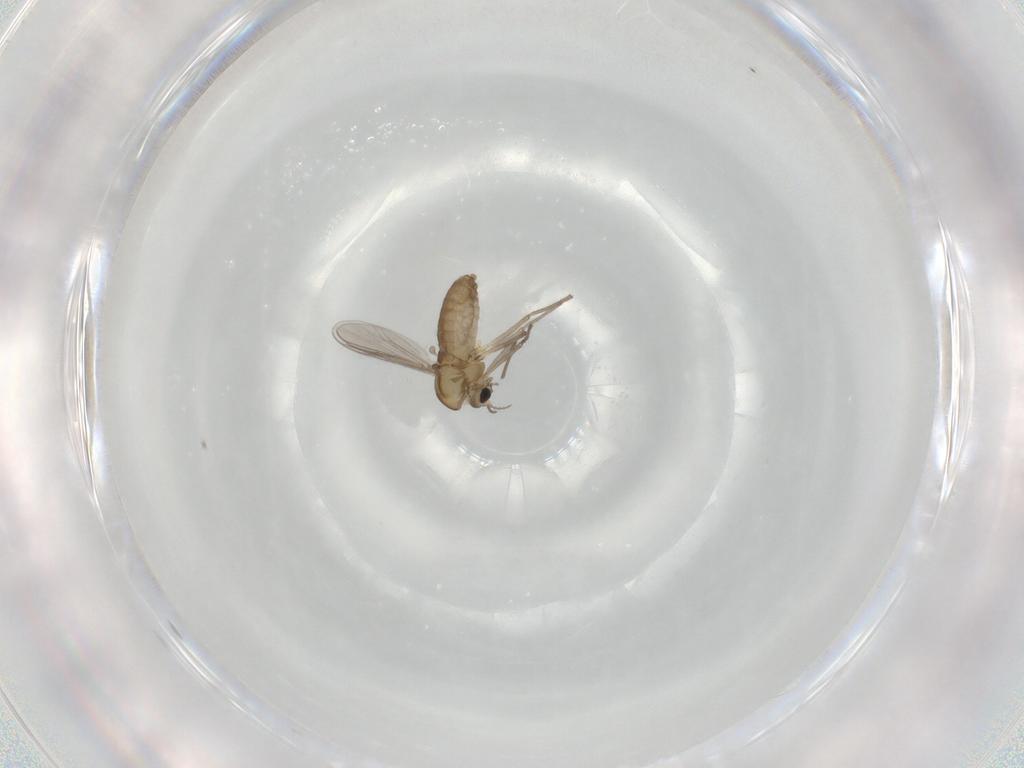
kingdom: Animalia
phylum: Arthropoda
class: Insecta
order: Diptera
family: Chironomidae
